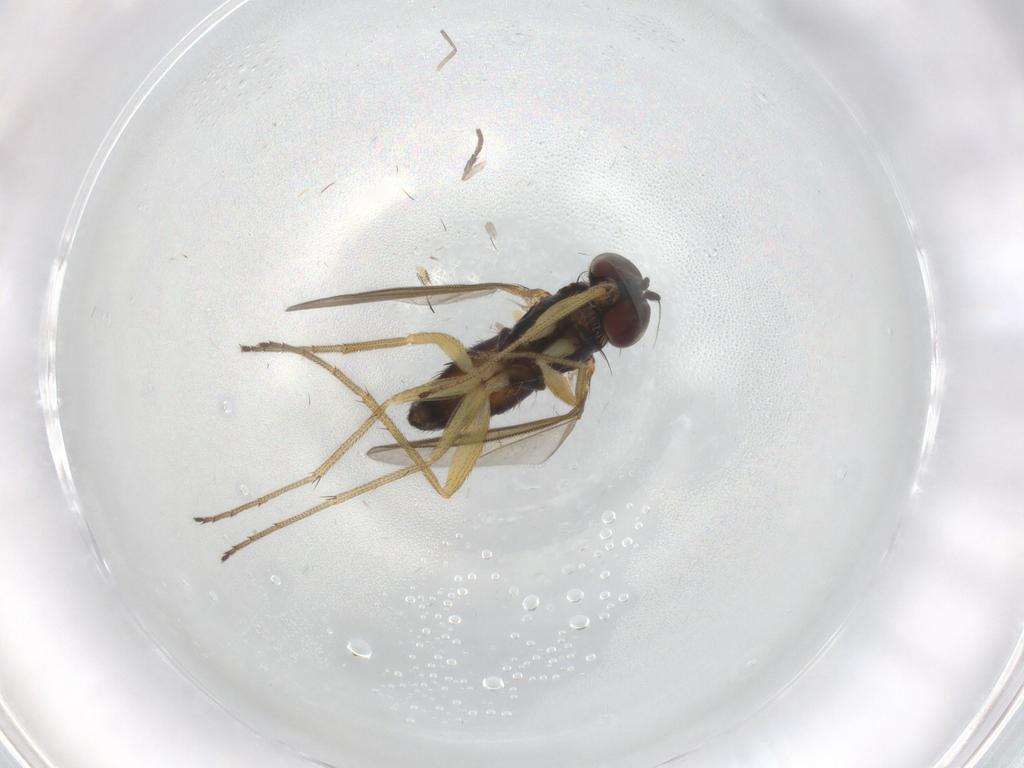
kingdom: Animalia
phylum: Arthropoda
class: Insecta
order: Diptera
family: Dolichopodidae
